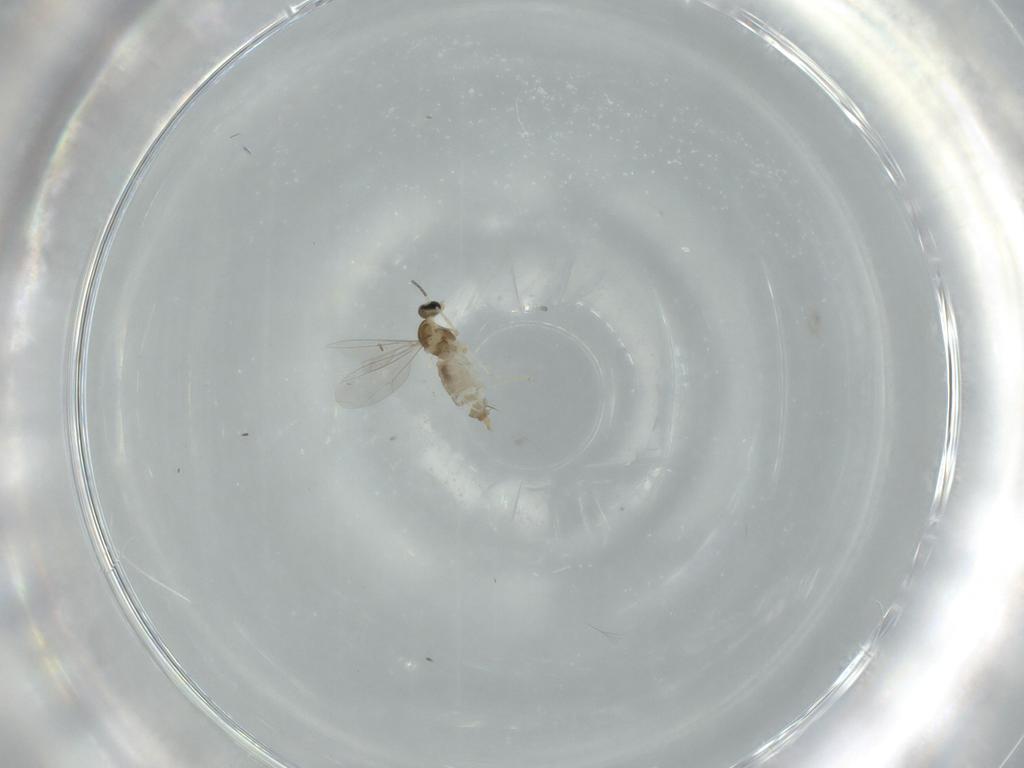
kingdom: Animalia
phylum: Arthropoda
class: Insecta
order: Diptera
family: Cecidomyiidae
